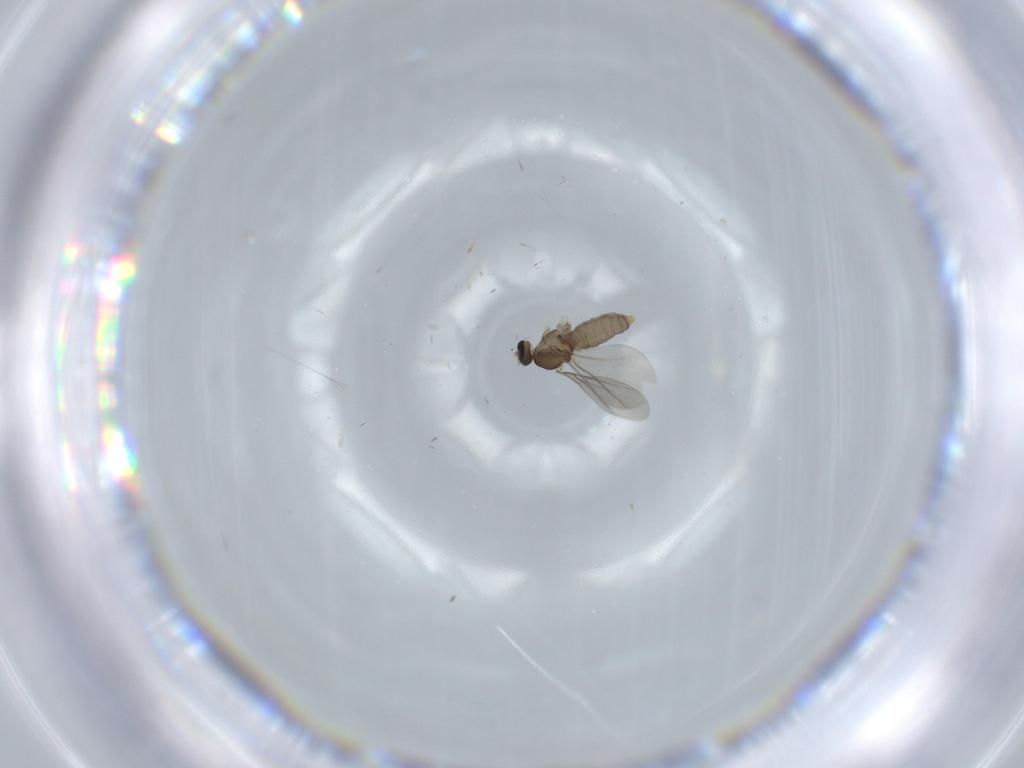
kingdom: Animalia
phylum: Arthropoda
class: Insecta
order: Diptera
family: Cecidomyiidae
